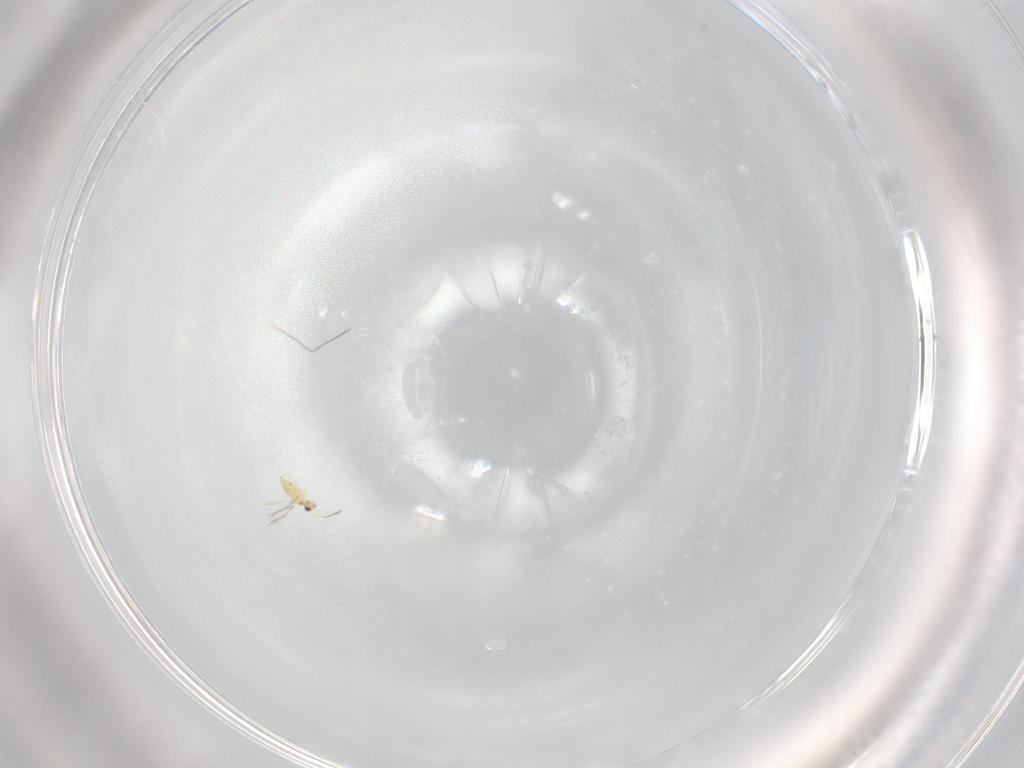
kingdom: Animalia
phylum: Arthropoda
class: Insecta
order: Hymenoptera
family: Mymaridae
